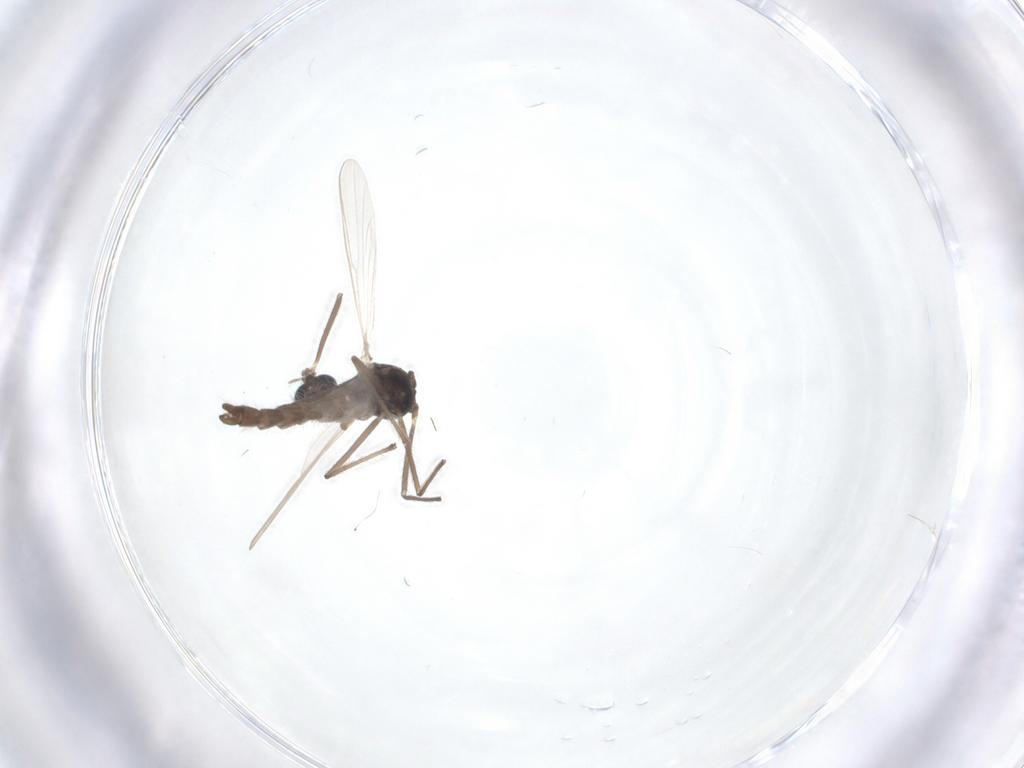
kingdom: Animalia
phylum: Arthropoda
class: Insecta
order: Diptera
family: Chironomidae
